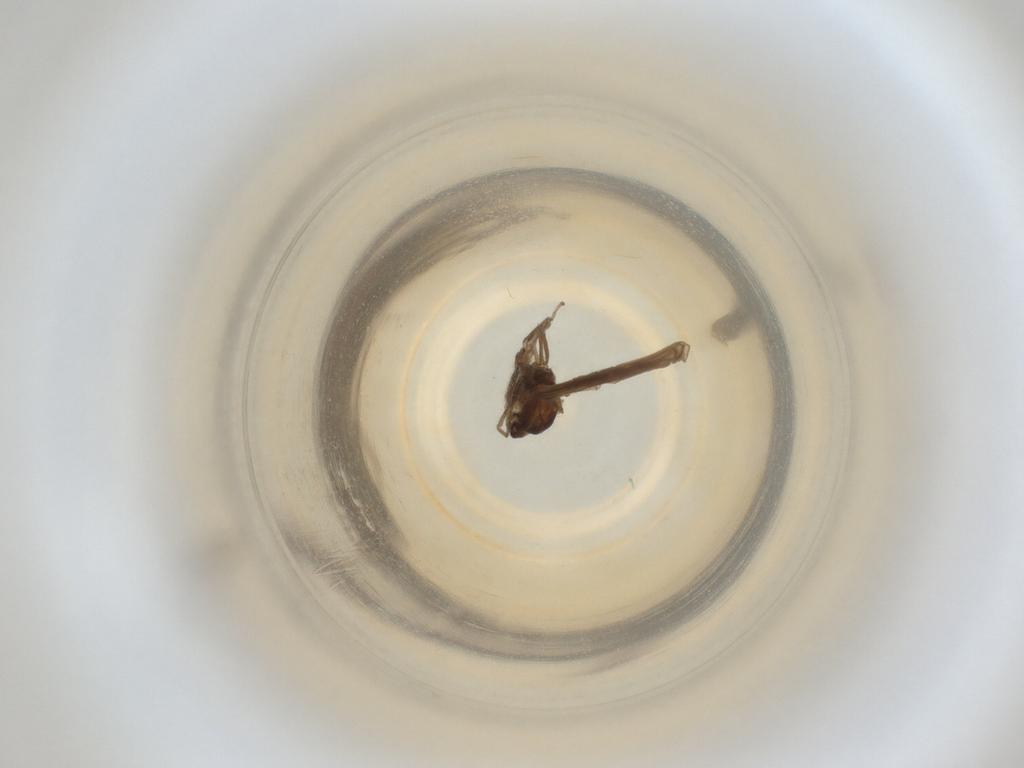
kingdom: Animalia
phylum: Arthropoda
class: Insecta
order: Diptera
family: Cecidomyiidae
